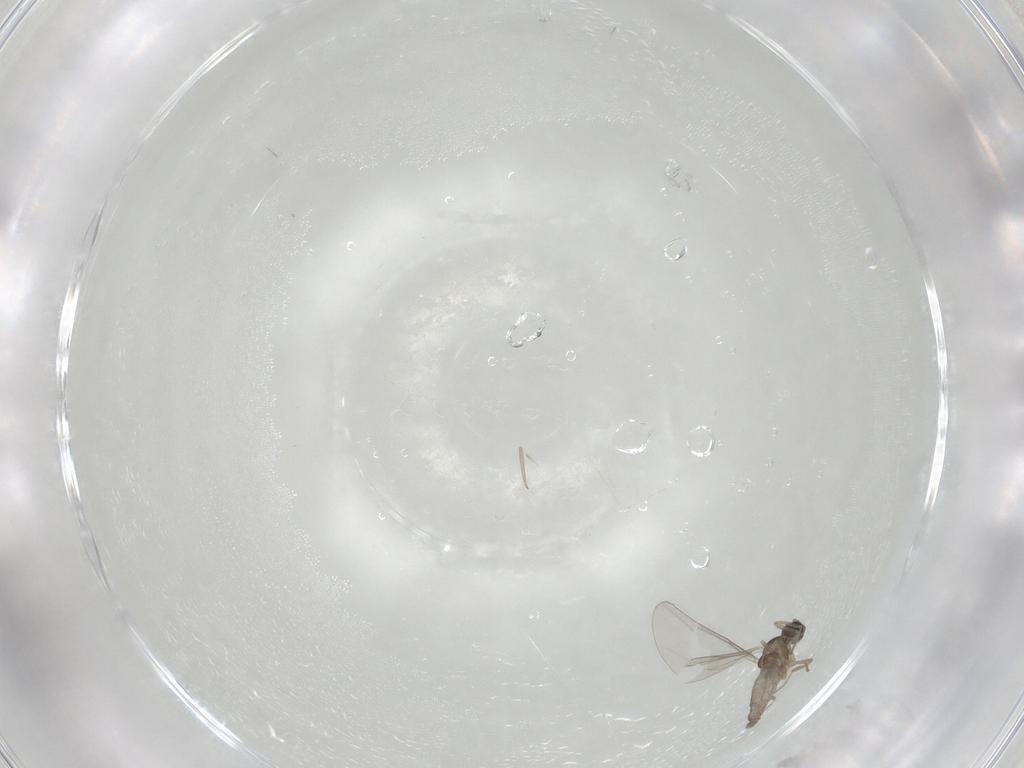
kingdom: Animalia
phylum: Arthropoda
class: Insecta
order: Diptera
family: Cecidomyiidae
